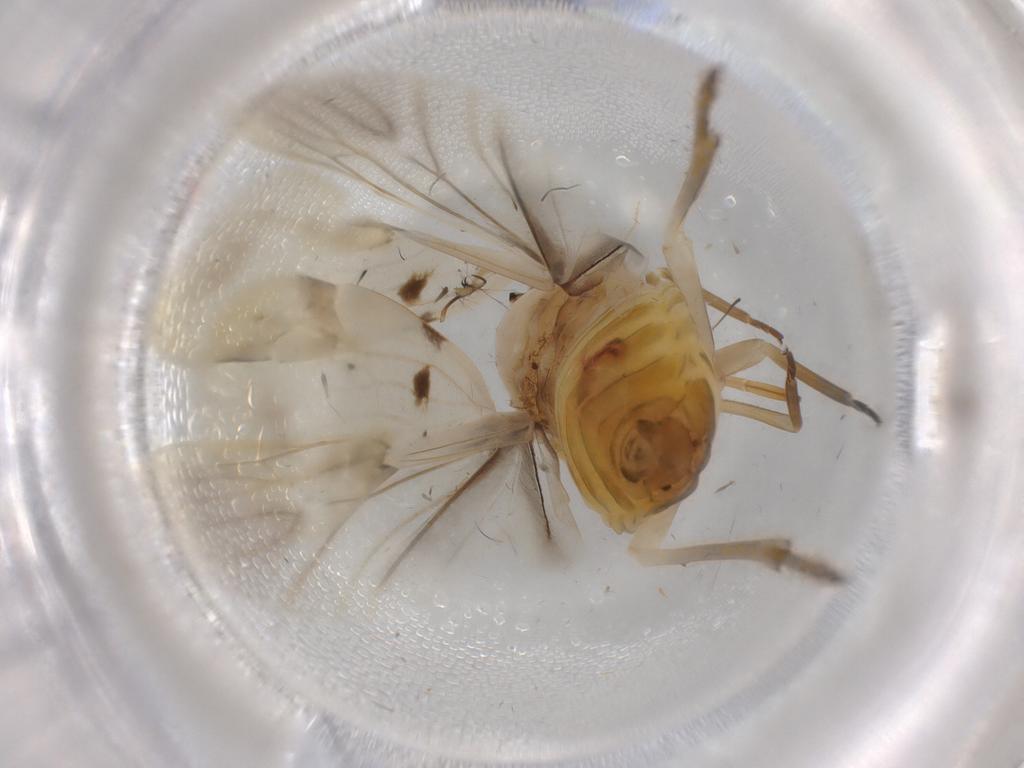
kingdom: Animalia
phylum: Arthropoda
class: Insecta
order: Hemiptera
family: Achilidae
